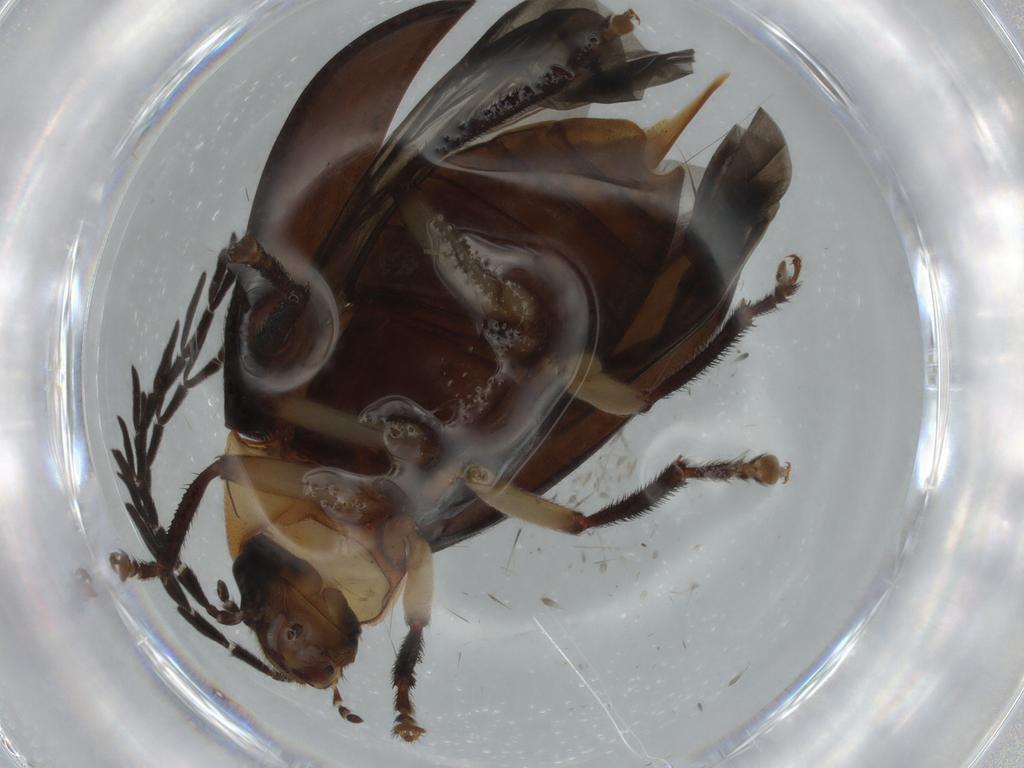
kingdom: Animalia
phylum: Arthropoda
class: Insecta
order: Coleoptera
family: Ptilodactylidae
